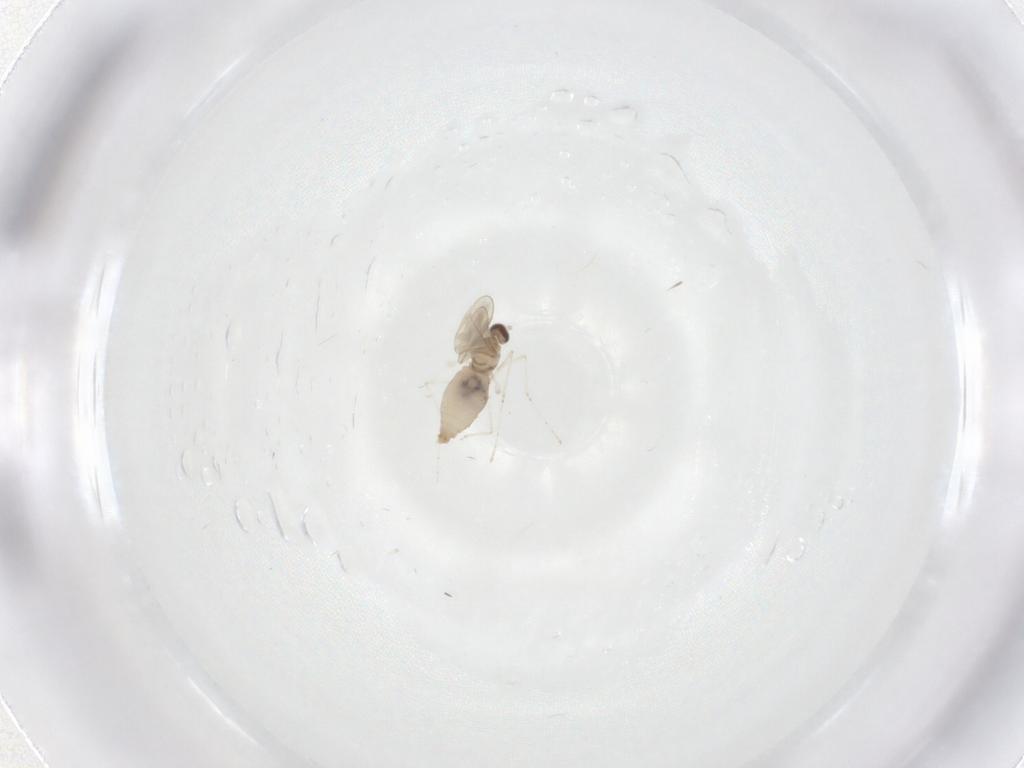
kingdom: Animalia
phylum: Arthropoda
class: Insecta
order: Diptera
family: Cecidomyiidae
